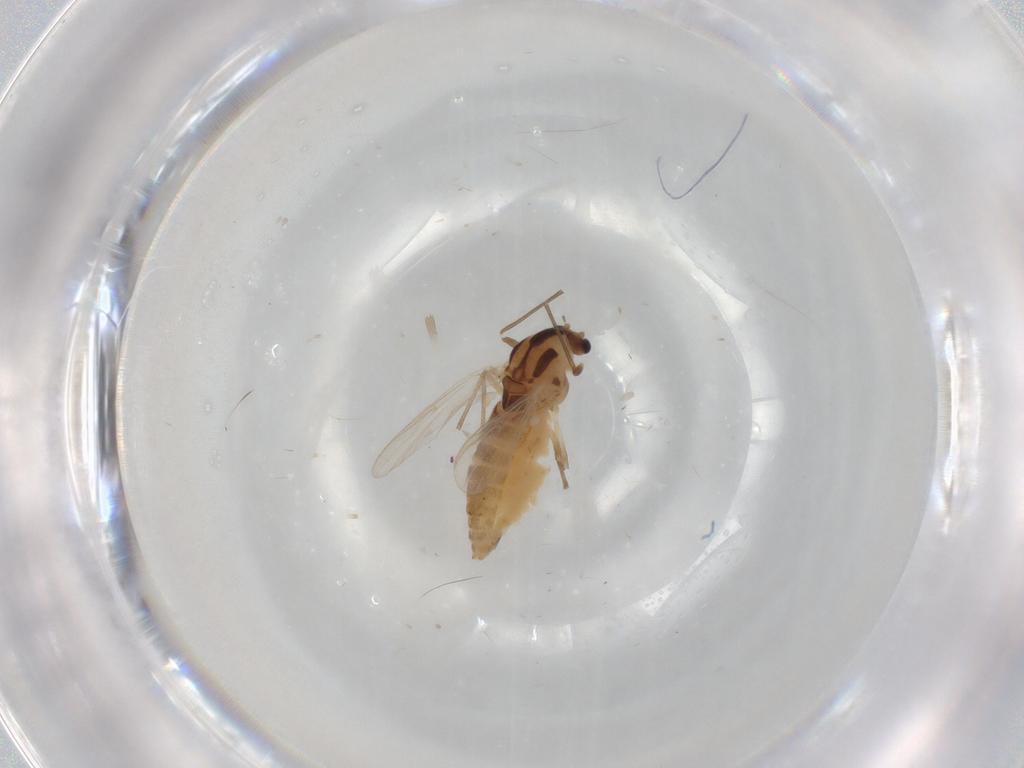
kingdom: Animalia
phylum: Arthropoda
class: Insecta
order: Diptera
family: Chironomidae
